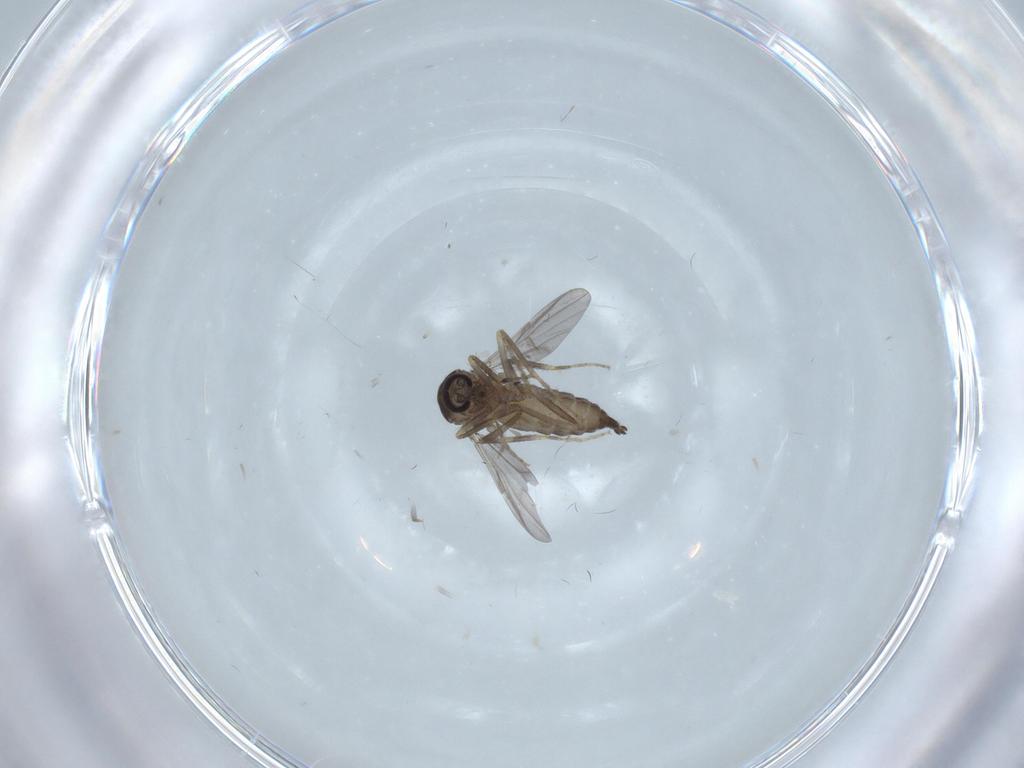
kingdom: Animalia
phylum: Arthropoda
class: Insecta
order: Diptera
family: Ceratopogonidae
